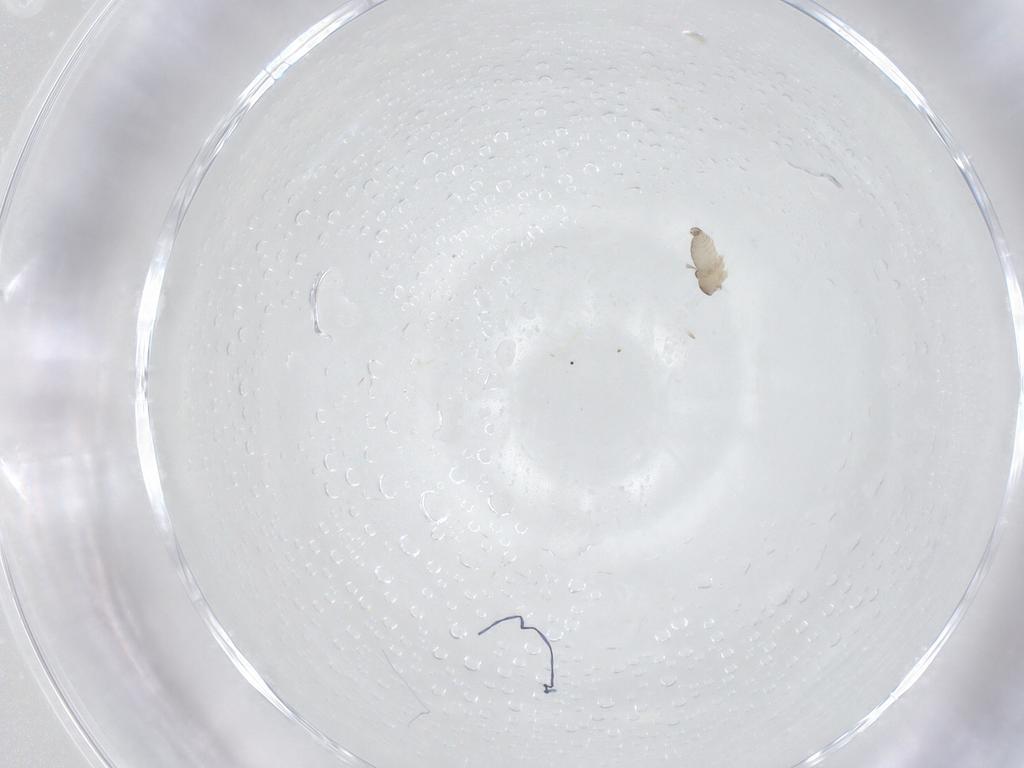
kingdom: Animalia
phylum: Arthropoda
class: Insecta
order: Diptera
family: Cecidomyiidae
